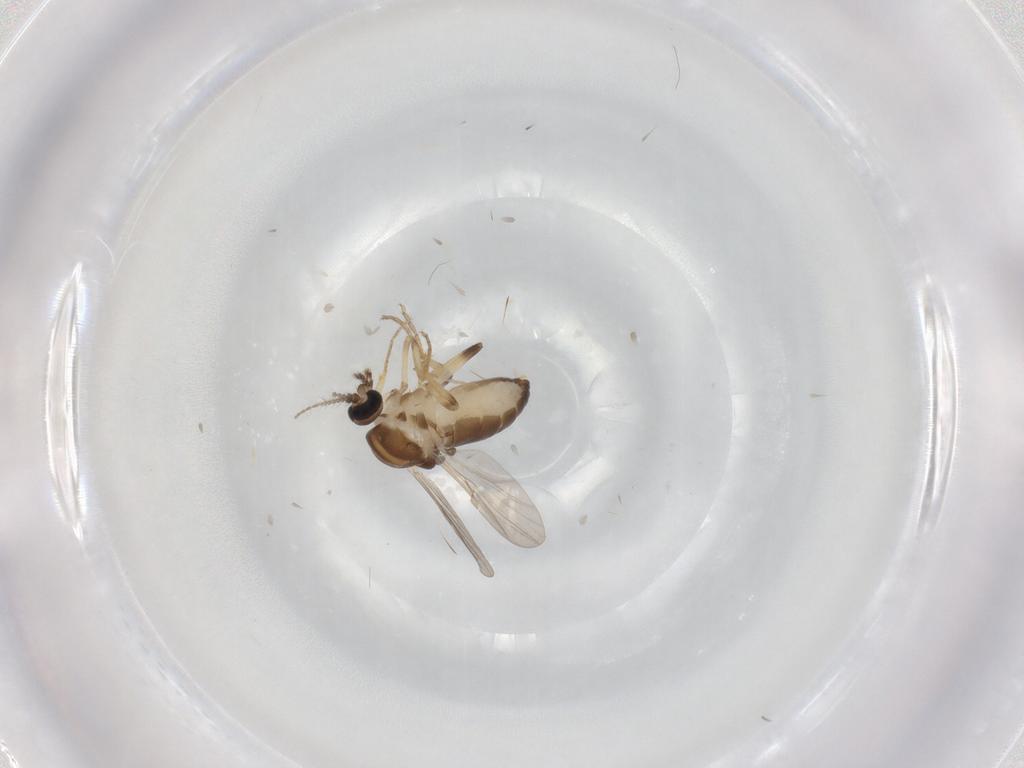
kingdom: Animalia
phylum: Arthropoda
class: Insecta
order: Diptera
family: Ceratopogonidae
